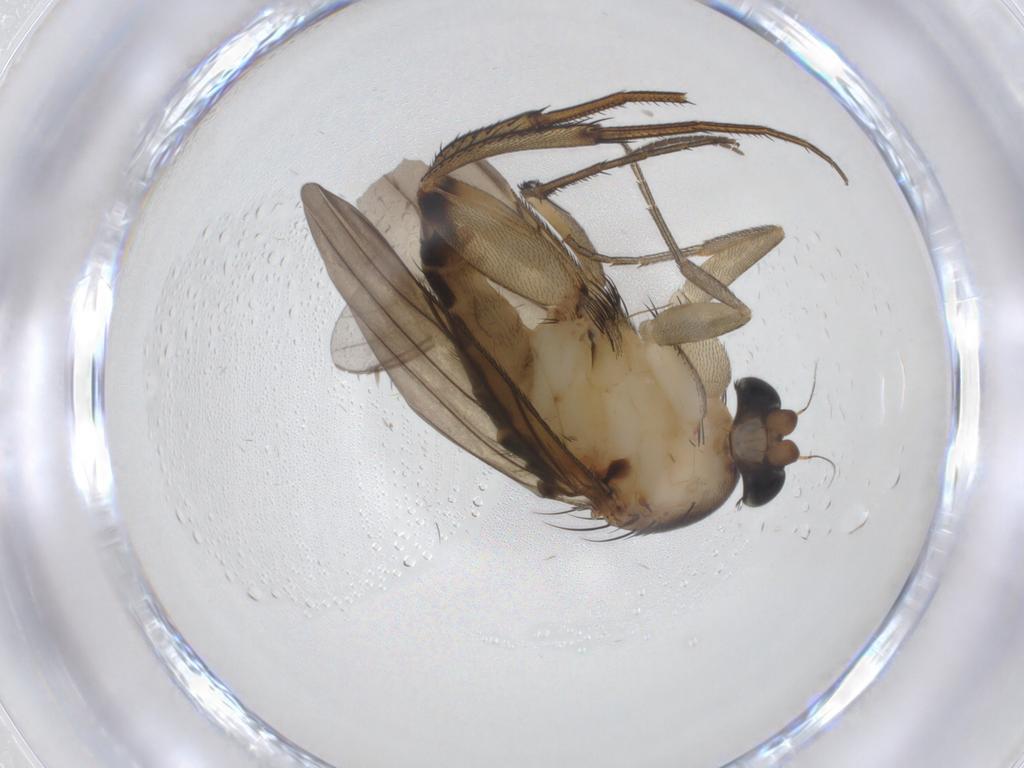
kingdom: Animalia
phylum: Arthropoda
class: Insecta
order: Diptera
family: Phoridae
